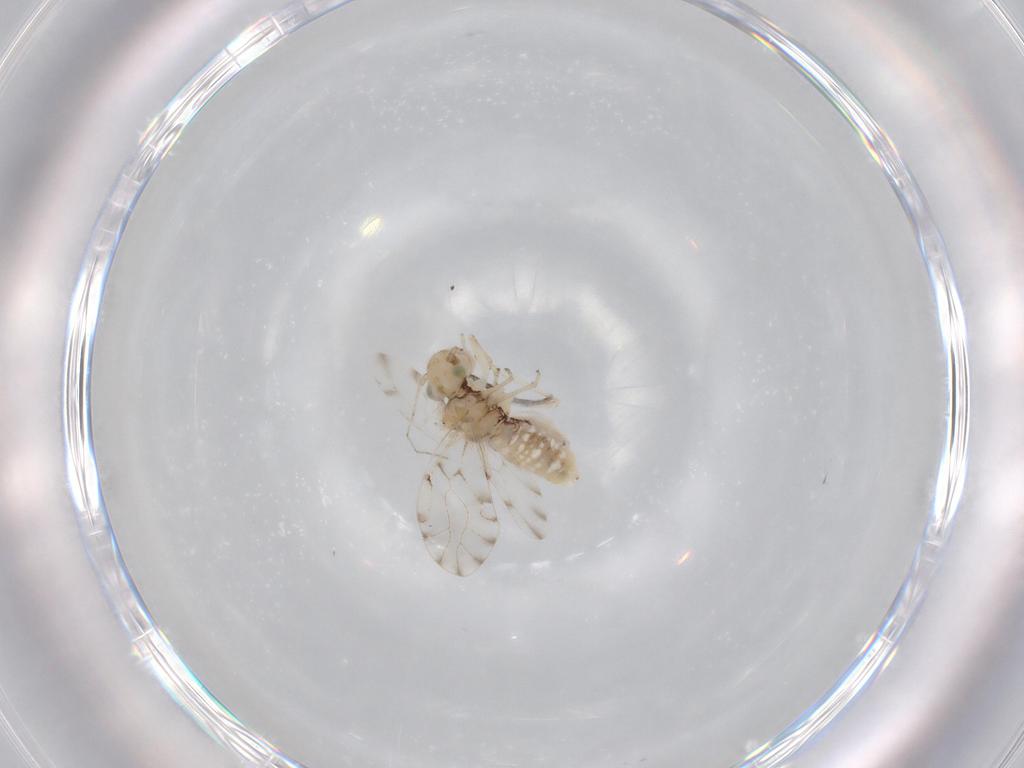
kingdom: Animalia
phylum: Arthropoda
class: Insecta
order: Psocodea
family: Ectopsocidae
